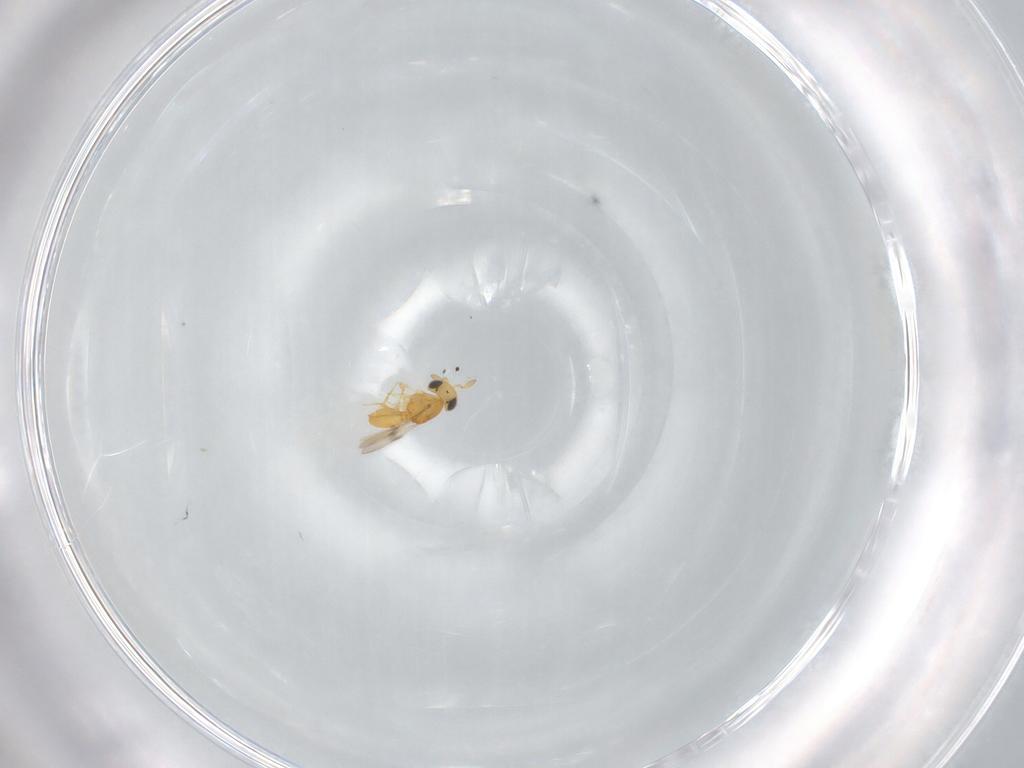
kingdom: Animalia
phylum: Arthropoda
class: Insecta
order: Hymenoptera
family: Scelionidae
